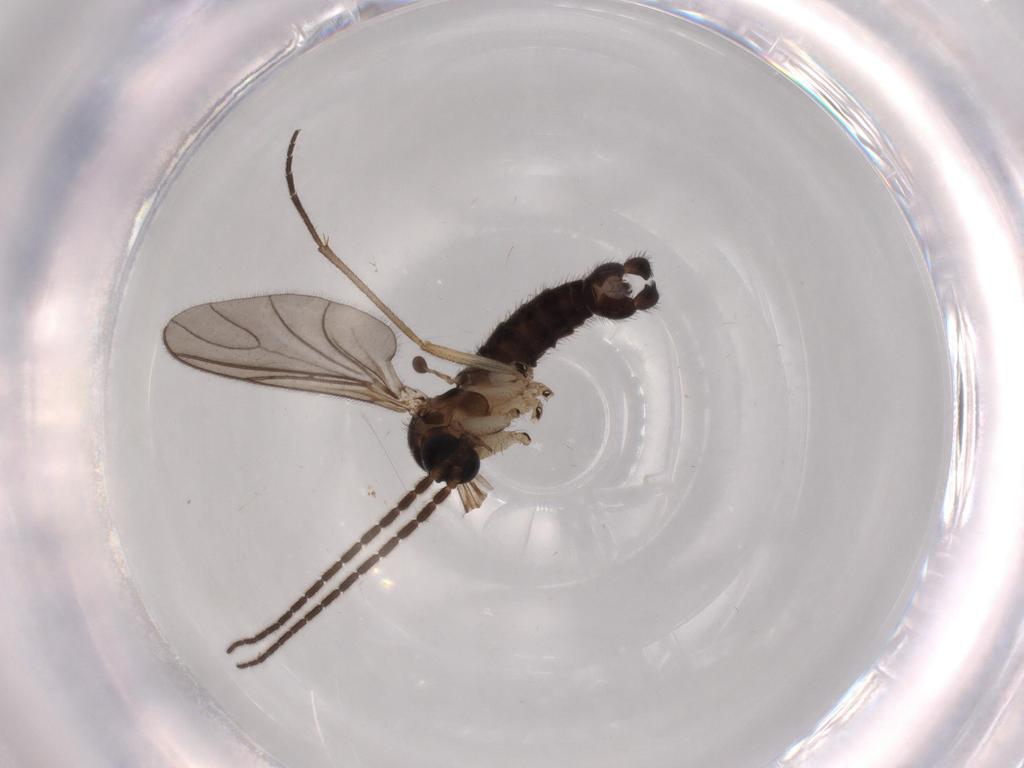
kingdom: Animalia
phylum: Arthropoda
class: Insecta
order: Diptera
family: Sciaridae
